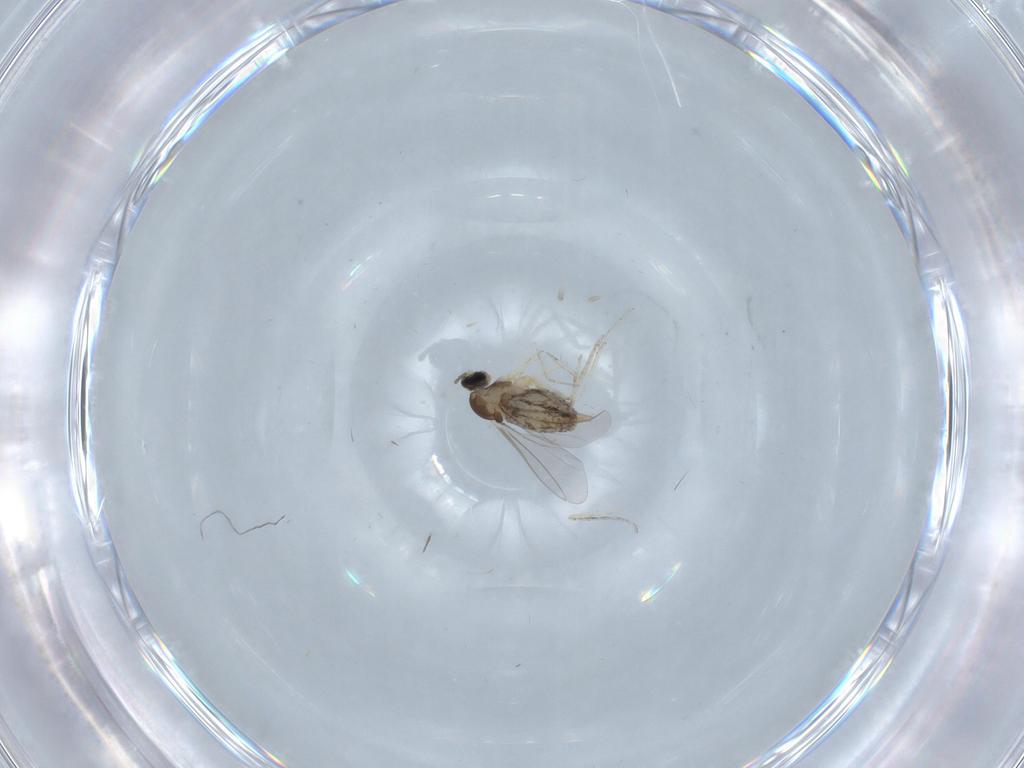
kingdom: Animalia
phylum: Arthropoda
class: Insecta
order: Diptera
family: Cecidomyiidae
